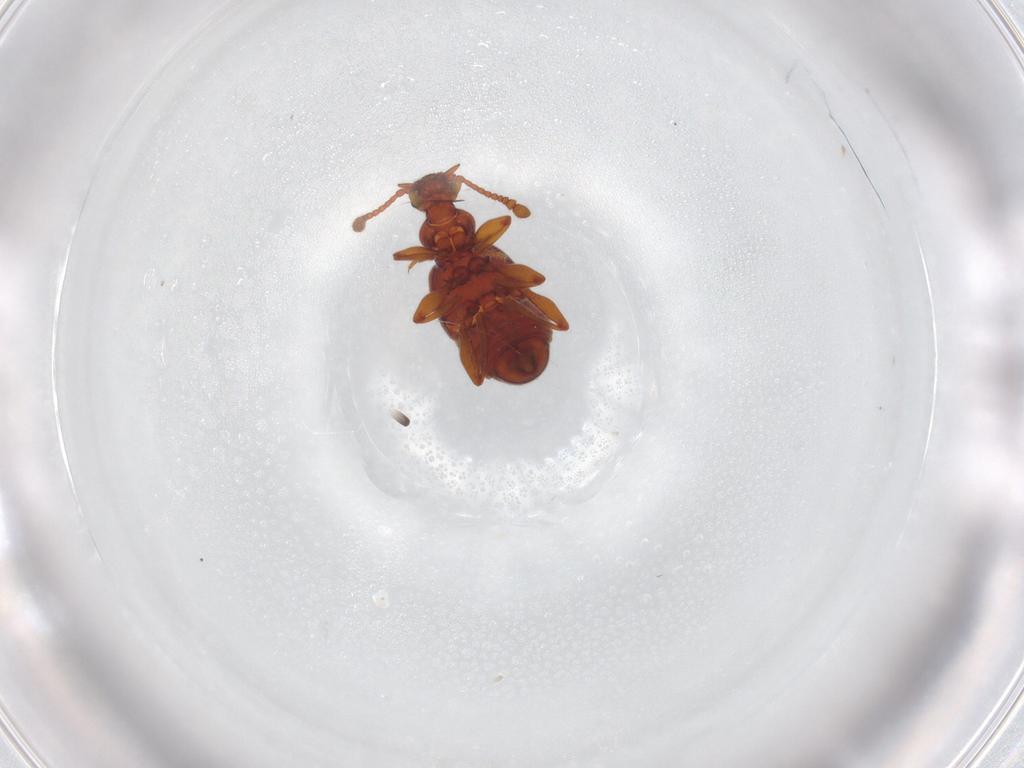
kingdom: Animalia
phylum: Arthropoda
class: Insecta
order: Coleoptera
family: Staphylinidae
